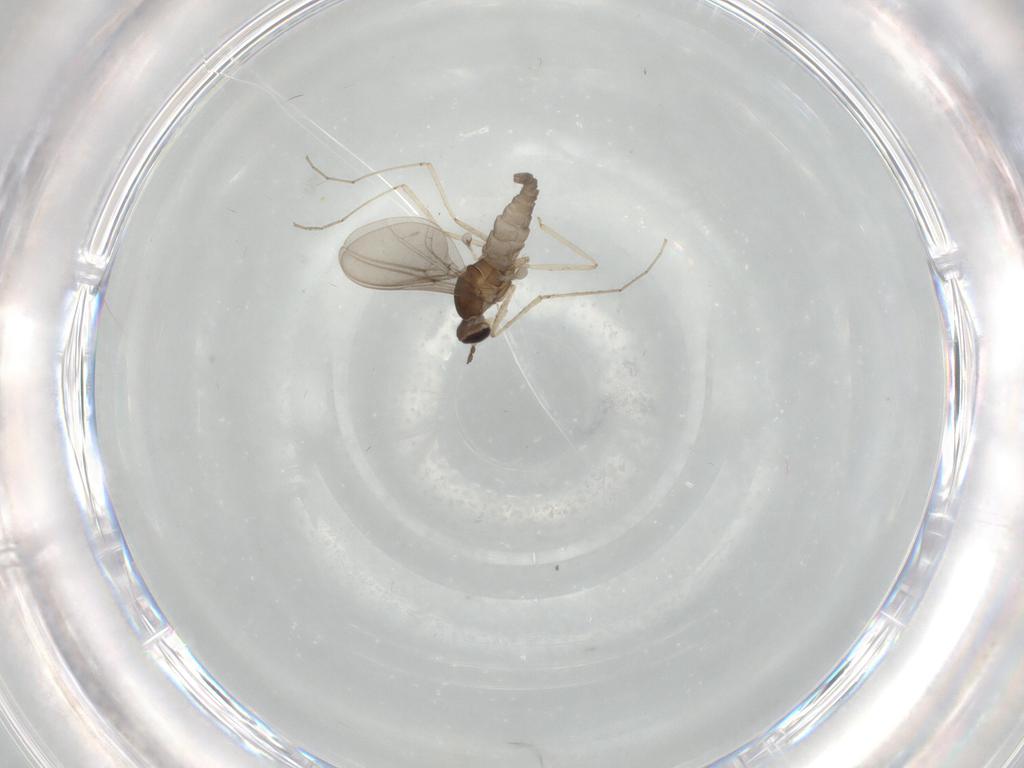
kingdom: Animalia
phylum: Arthropoda
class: Insecta
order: Diptera
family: Cecidomyiidae
